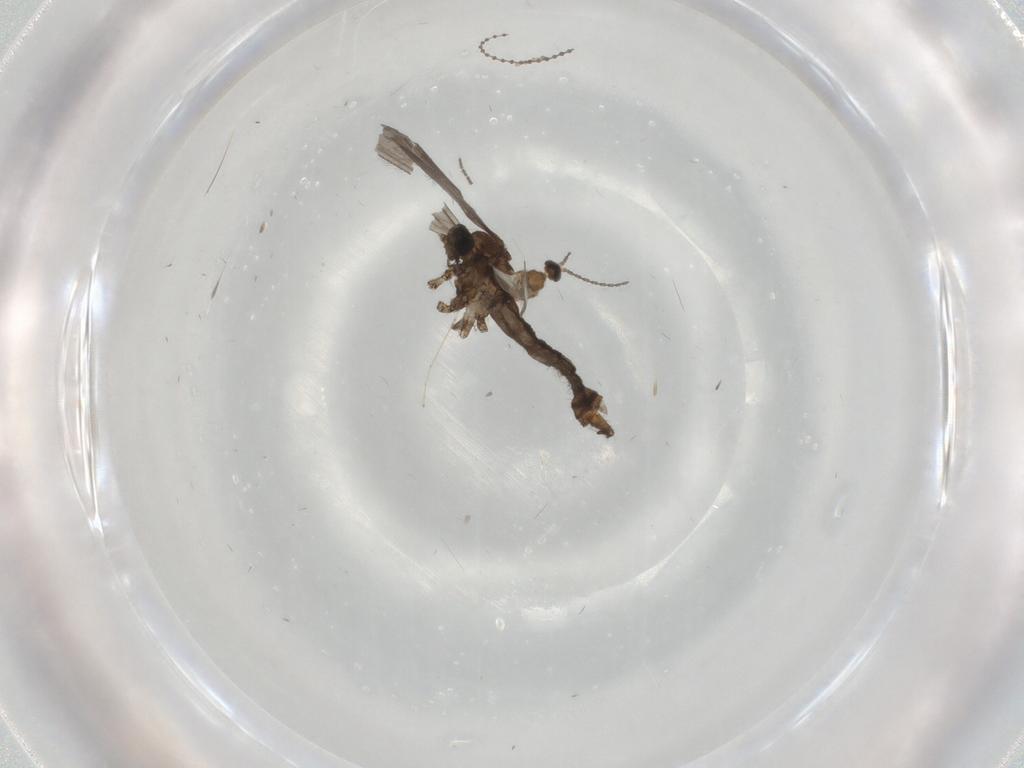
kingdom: Animalia
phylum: Arthropoda
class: Insecta
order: Diptera
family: Limoniidae
